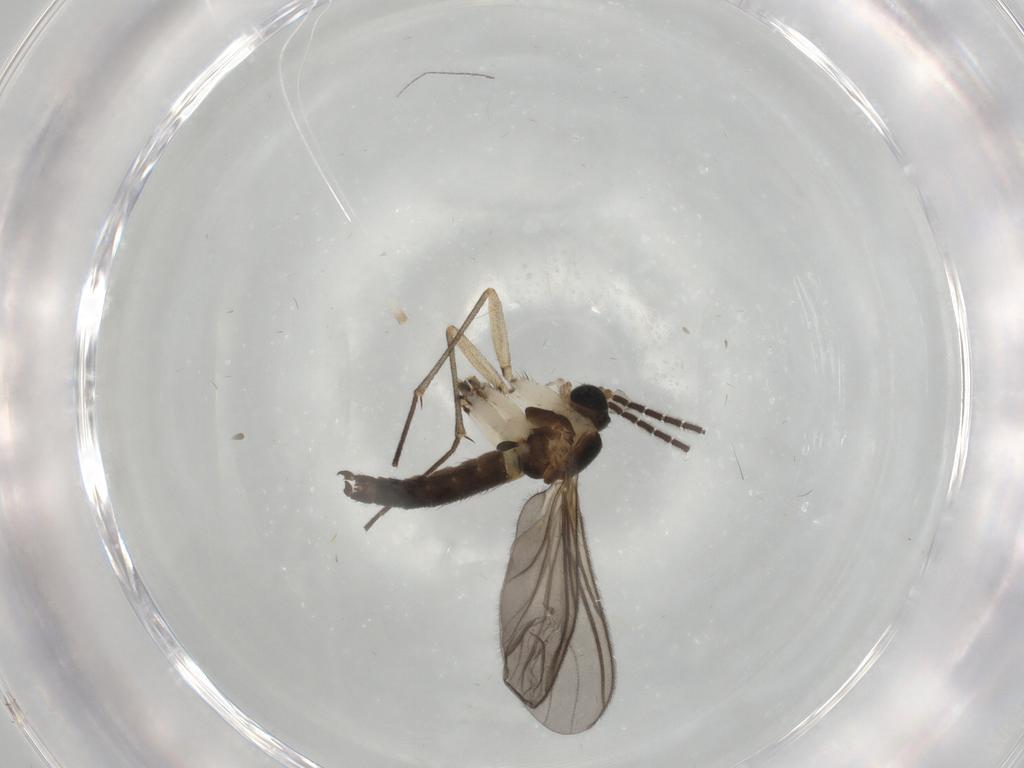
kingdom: Animalia
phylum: Arthropoda
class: Insecta
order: Diptera
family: Sciaridae
